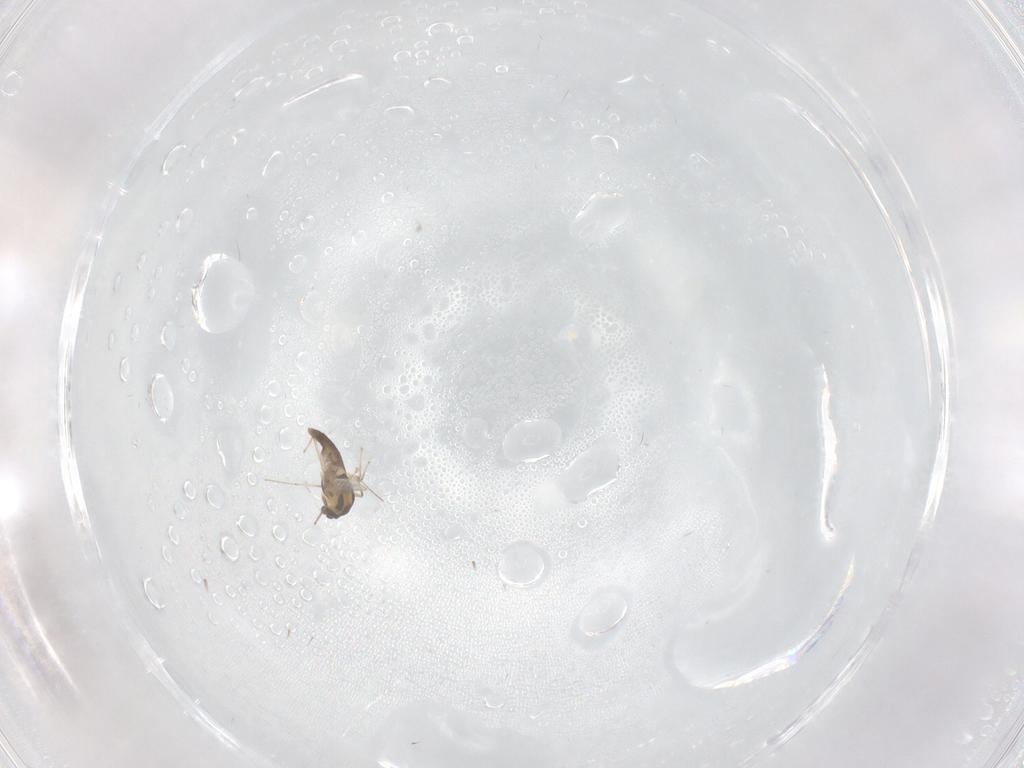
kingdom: Animalia
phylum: Arthropoda
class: Insecta
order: Diptera
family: Chironomidae
